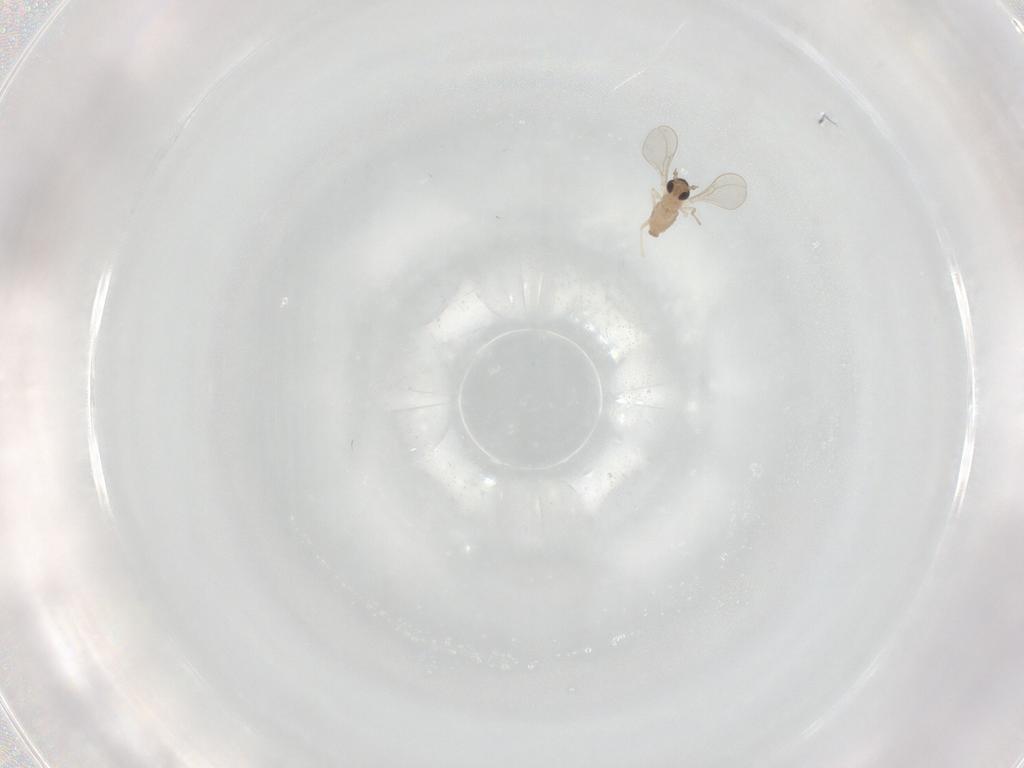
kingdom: Animalia
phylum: Arthropoda
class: Insecta
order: Diptera
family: Cecidomyiidae
